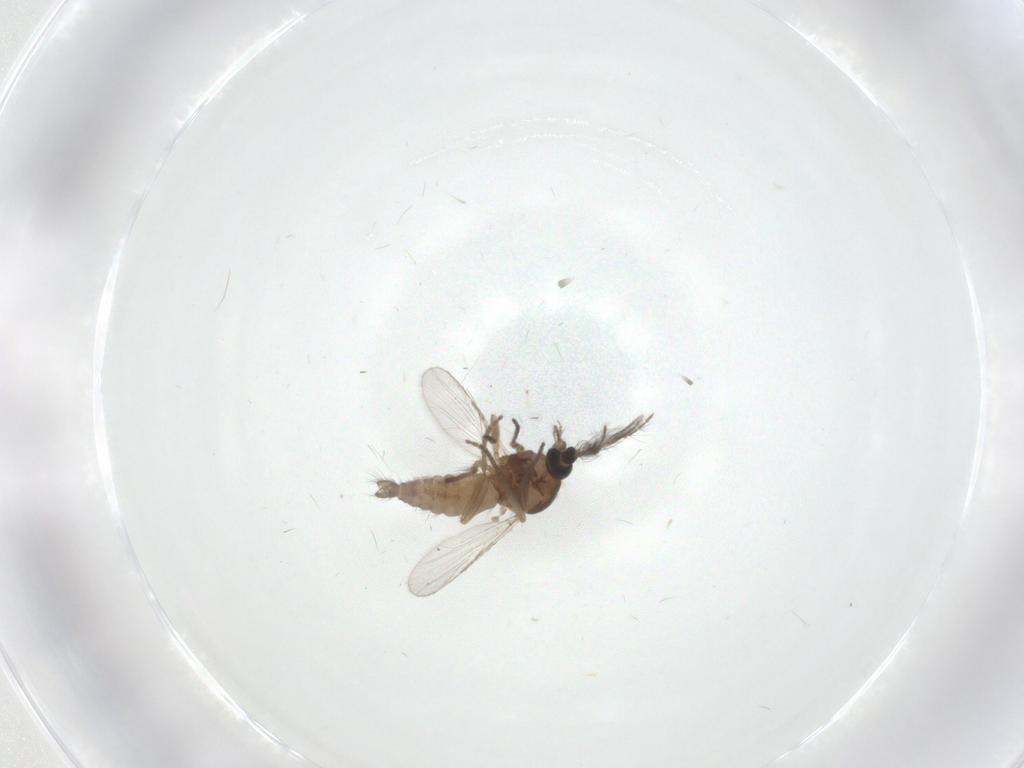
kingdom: Animalia
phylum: Arthropoda
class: Insecta
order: Diptera
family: Ceratopogonidae
